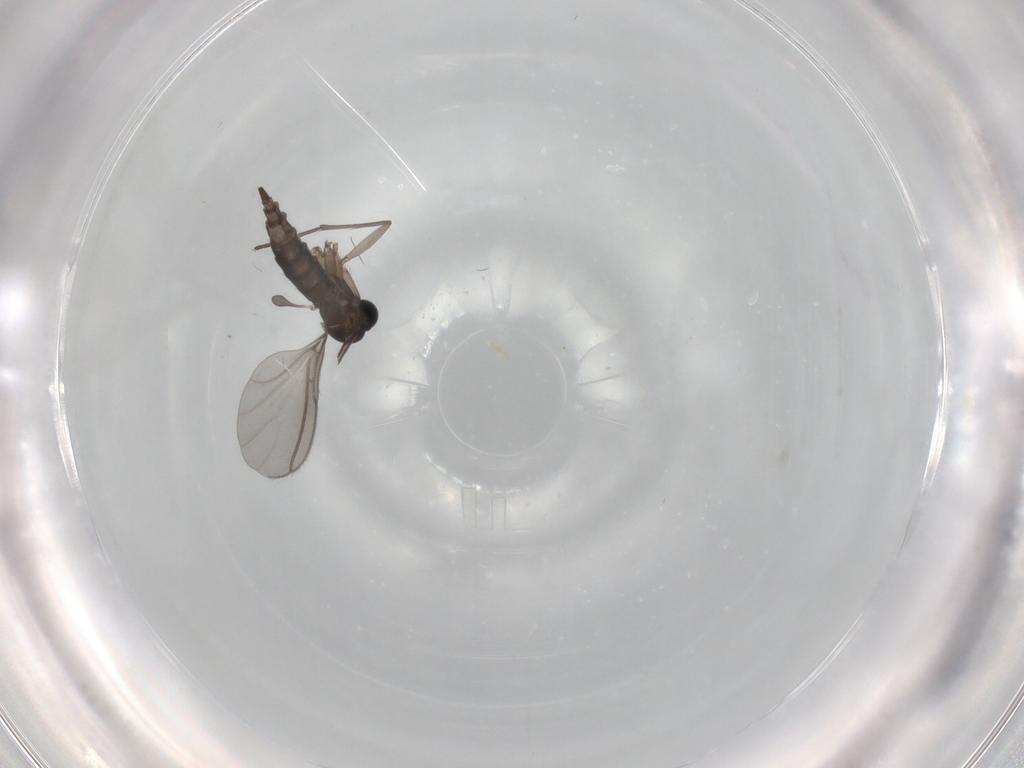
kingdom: Animalia
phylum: Arthropoda
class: Insecta
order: Diptera
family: Sciaridae
